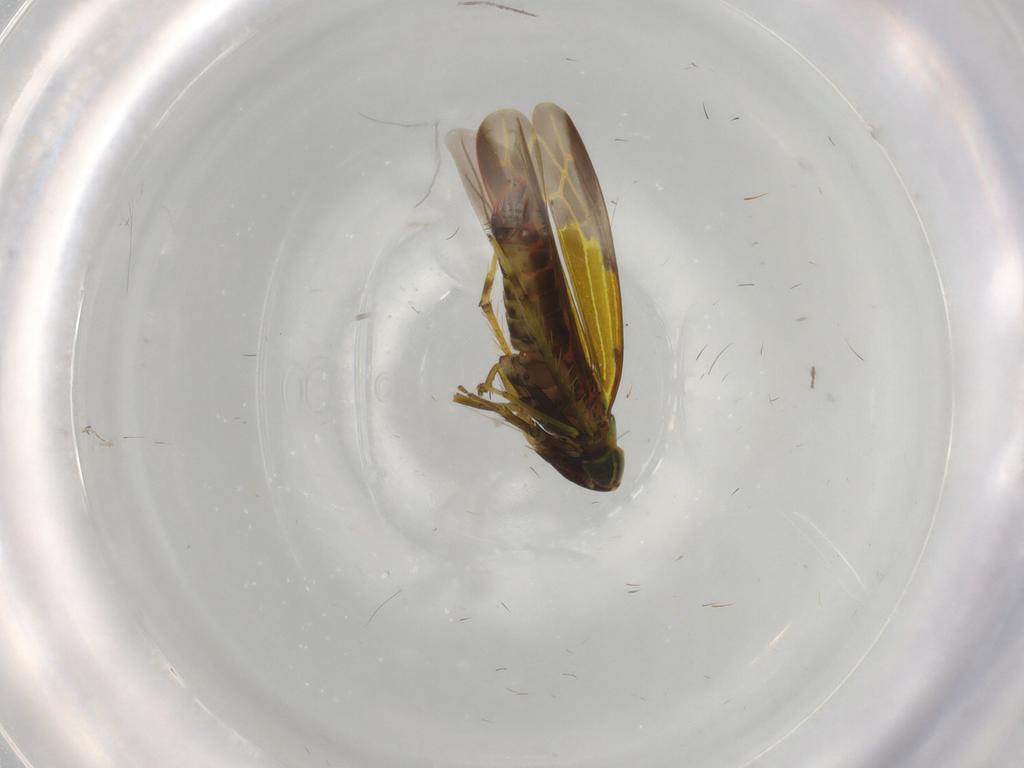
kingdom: Animalia
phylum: Arthropoda
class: Insecta
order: Hemiptera
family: Cicadellidae
